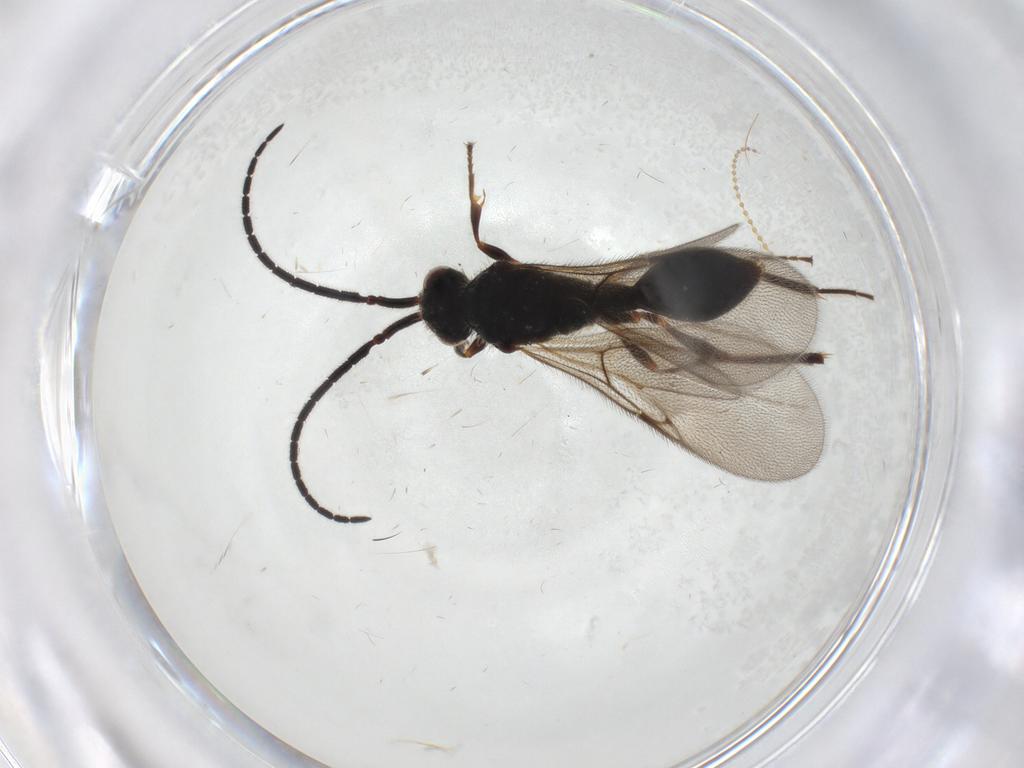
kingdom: Animalia
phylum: Arthropoda
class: Insecta
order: Hymenoptera
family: Diapriidae
